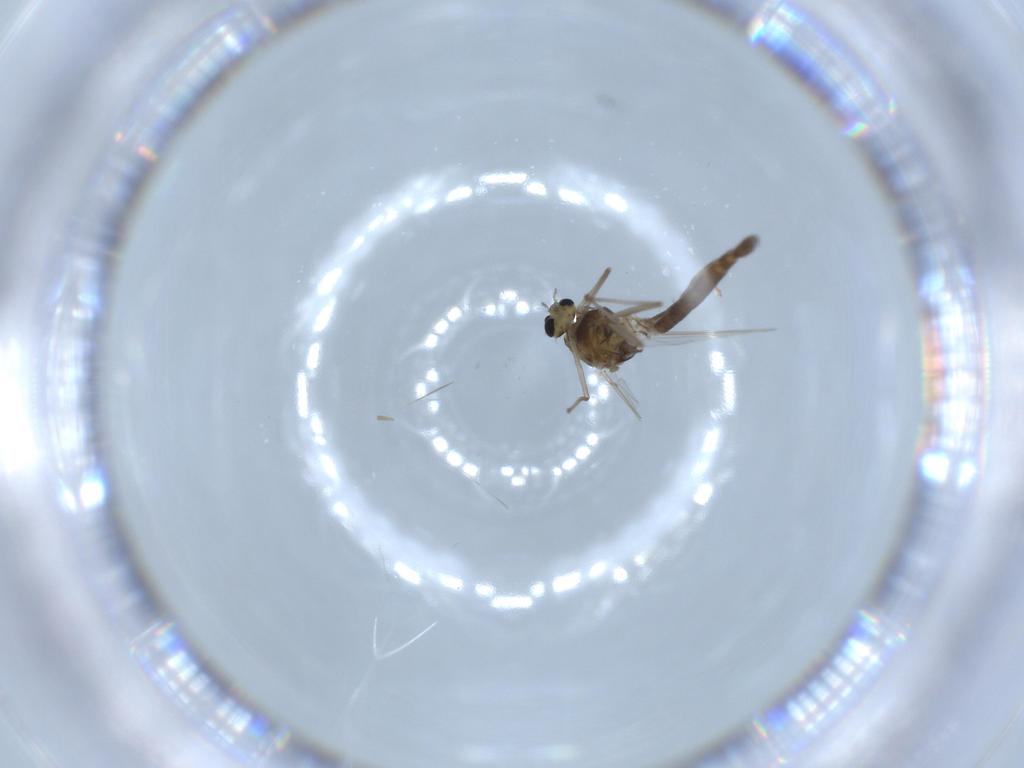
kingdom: Animalia
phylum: Arthropoda
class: Insecta
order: Diptera
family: Chironomidae
